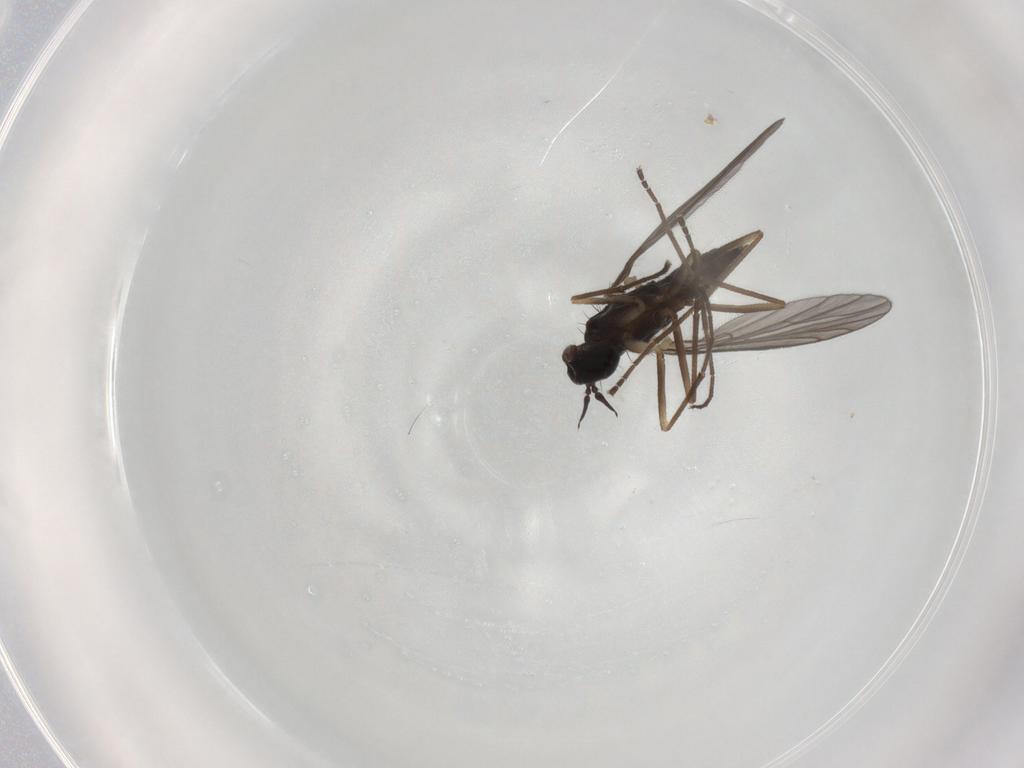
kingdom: Animalia
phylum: Arthropoda
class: Insecta
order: Diptera
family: Empididae
